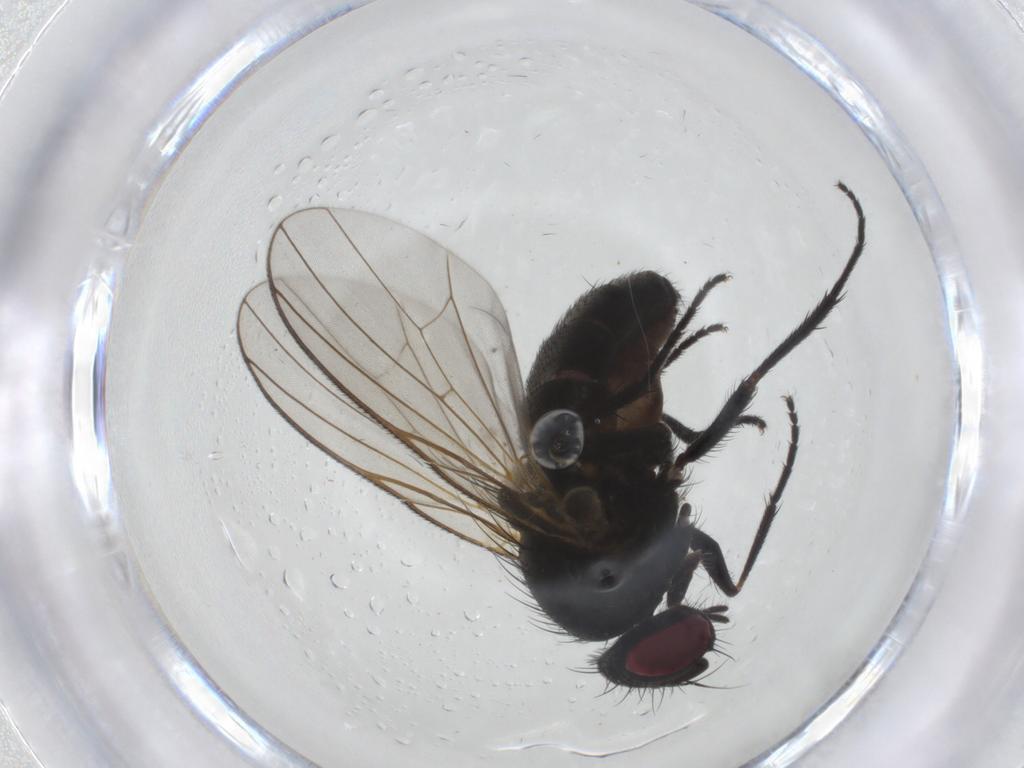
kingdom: Animalia
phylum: Arthropoda
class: Insecta
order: Diptera
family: Fannia
